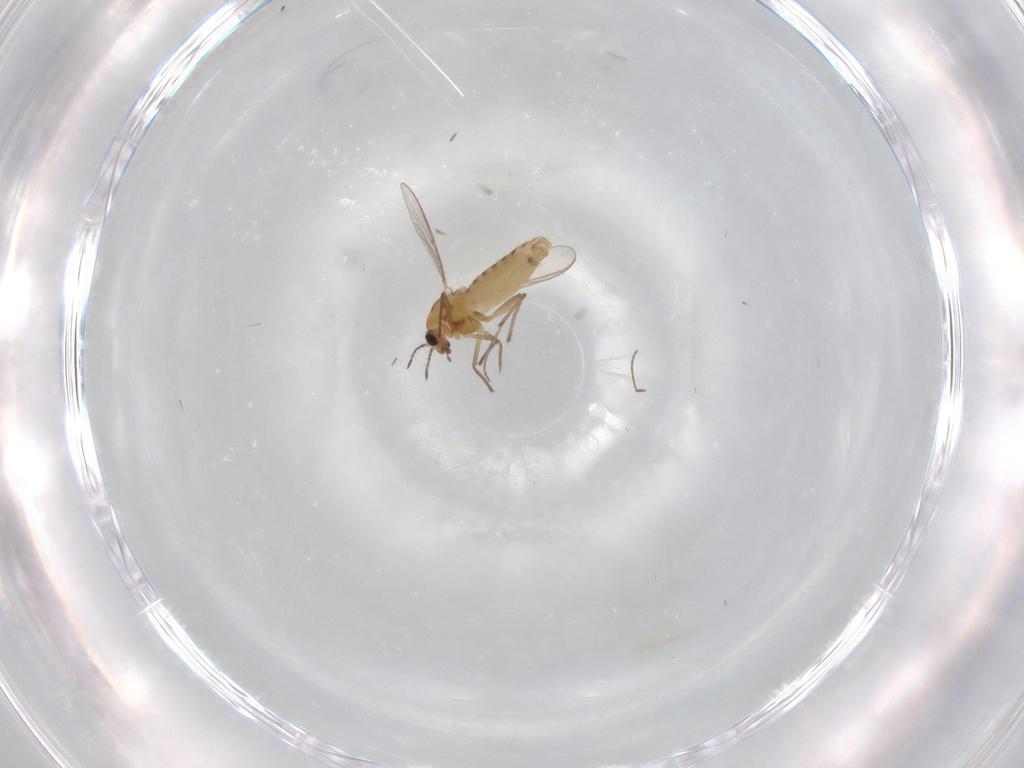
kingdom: Animalia
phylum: Arthropoda
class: Insecta
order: Diptera
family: Chironomidae
